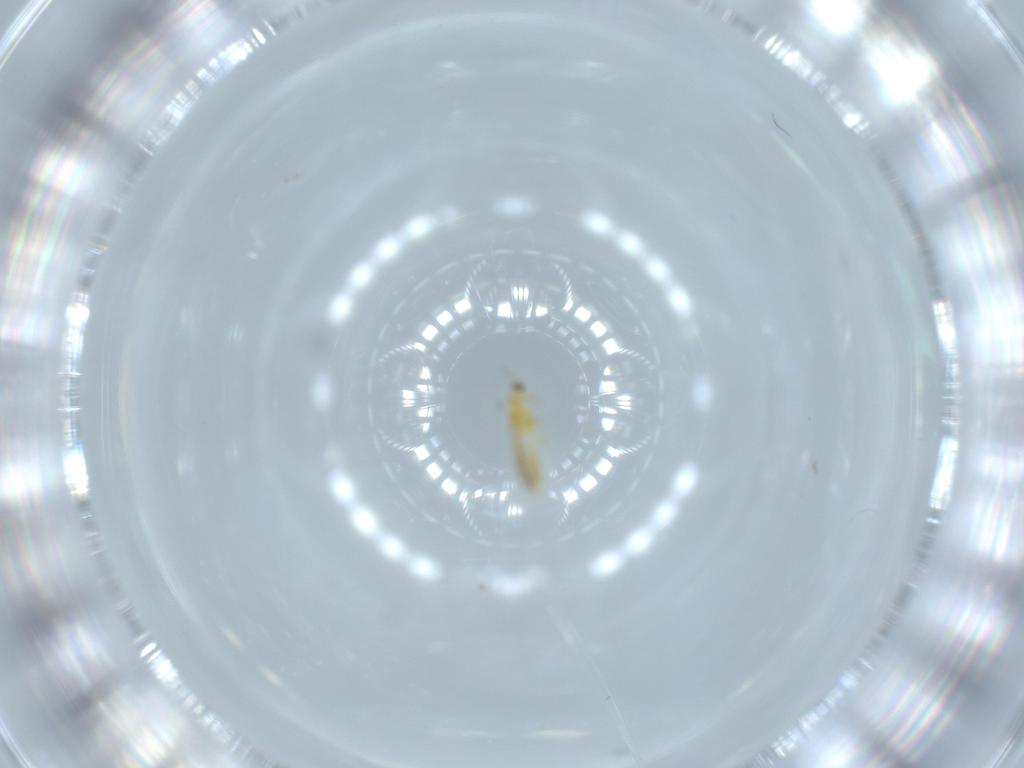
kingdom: Animalia
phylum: Arthropoda
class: Insecta
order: Thysanoptera
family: Thripidae
